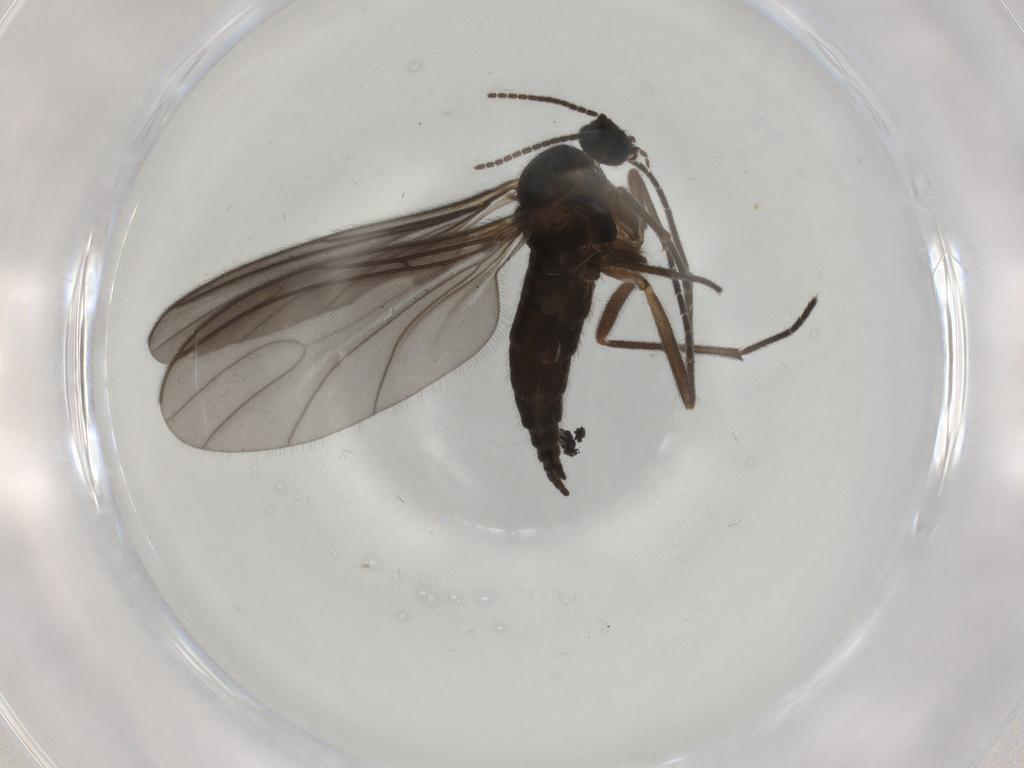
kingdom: Animalia
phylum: Arthropoda
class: Insecta
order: Diptera
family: Sciaridae
